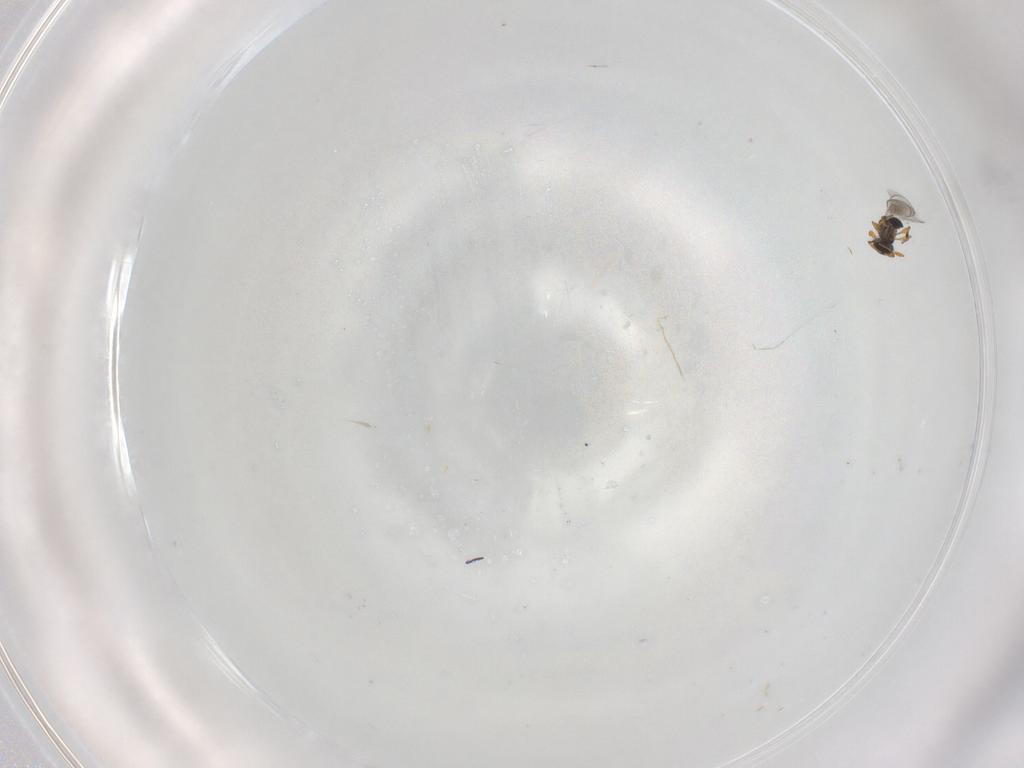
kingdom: Animalia
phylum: Arthropoda
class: Insecta
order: Hymenoptera
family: Platygastridae
